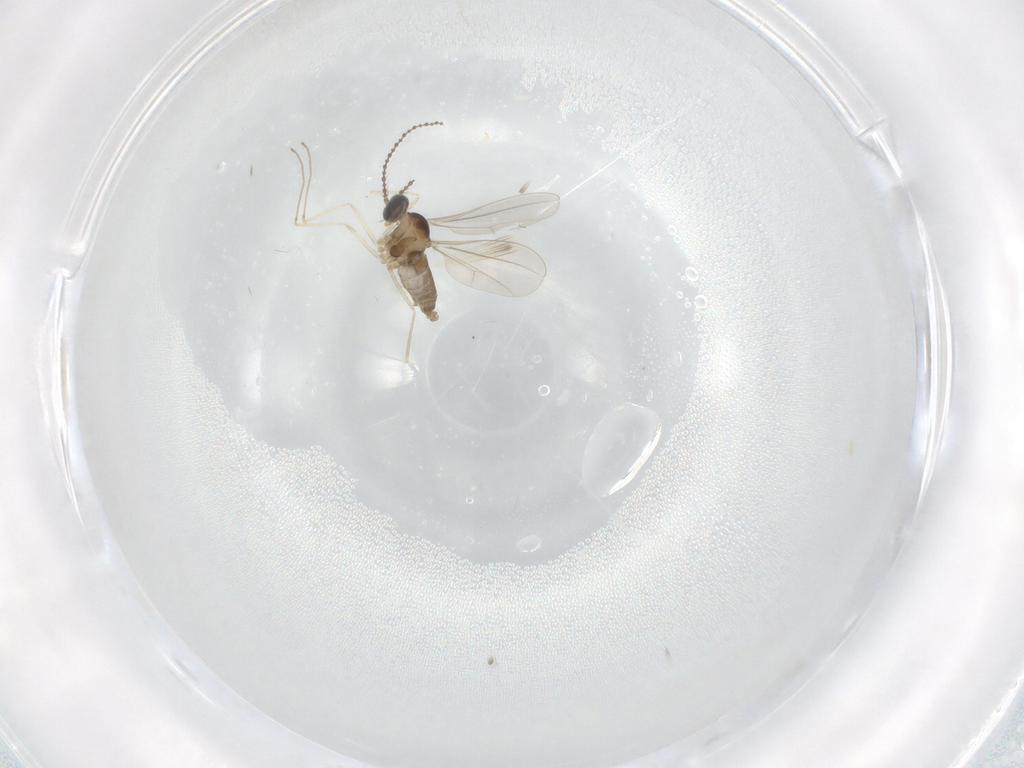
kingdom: Animalia
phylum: Arthropoda
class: Insecta
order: Diptera
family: Cecidomyiidae
